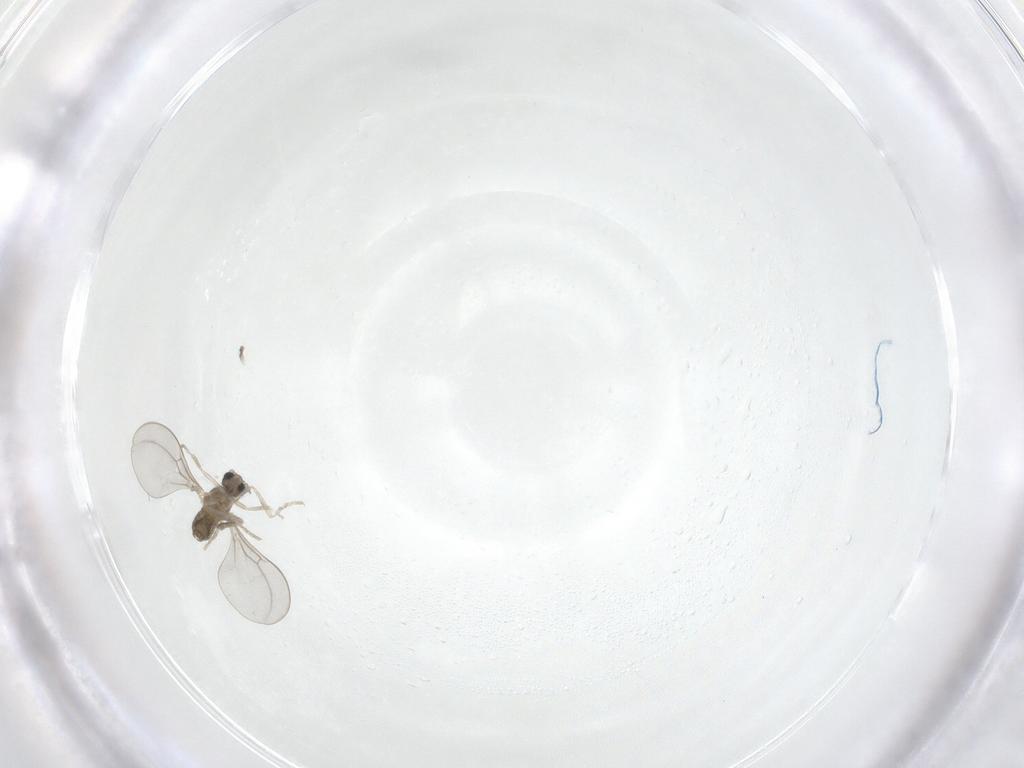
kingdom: Animalia
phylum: Arthropoda
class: Insecta
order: Diptera
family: Cecidomyiidae
